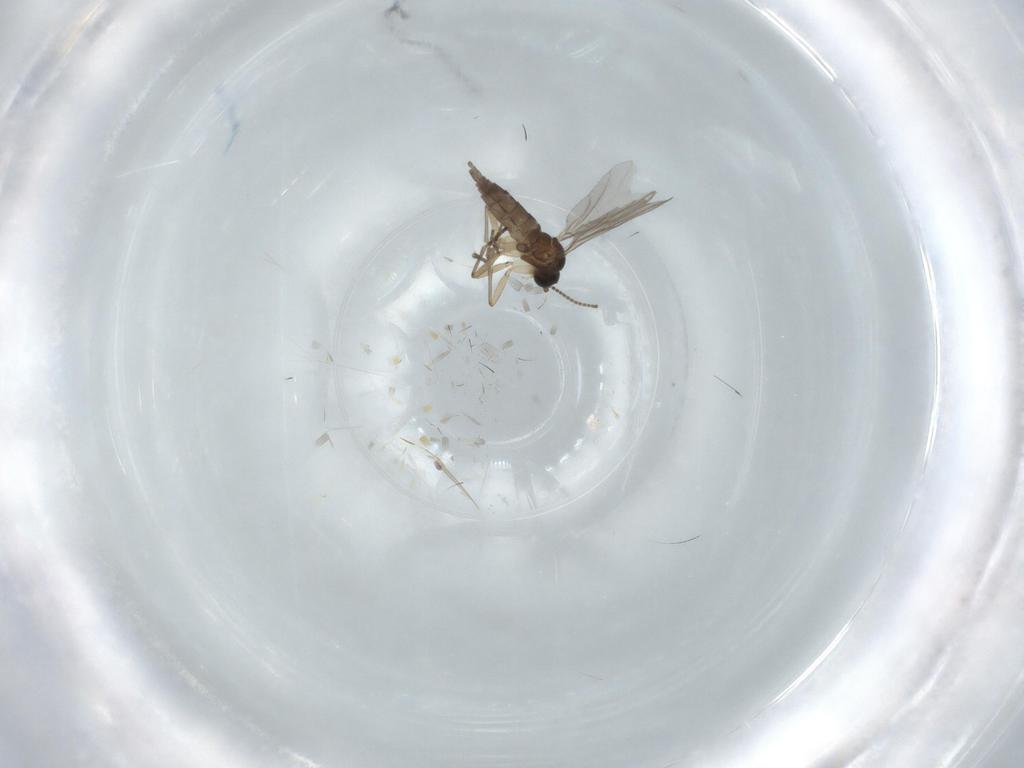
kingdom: Animalia
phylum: Arthropoda
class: Insecta
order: Diptera
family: Sciaridae
